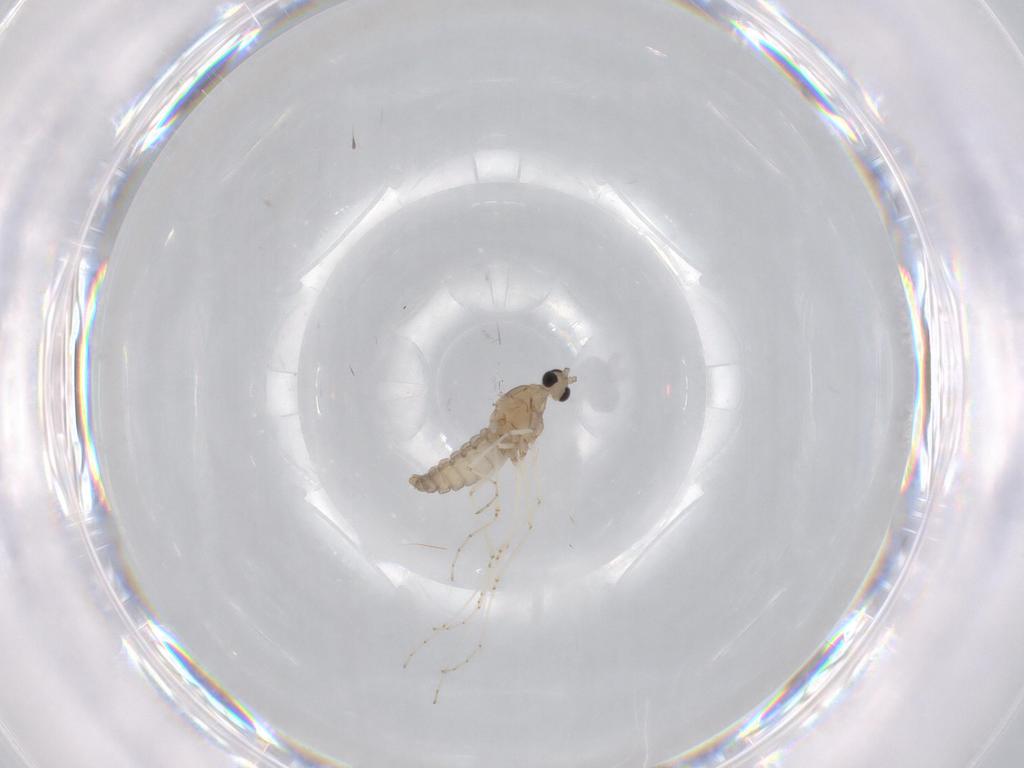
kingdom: Animalia
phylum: Arthropoda
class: Insecta
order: Diptera
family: Cecidomyiidae
